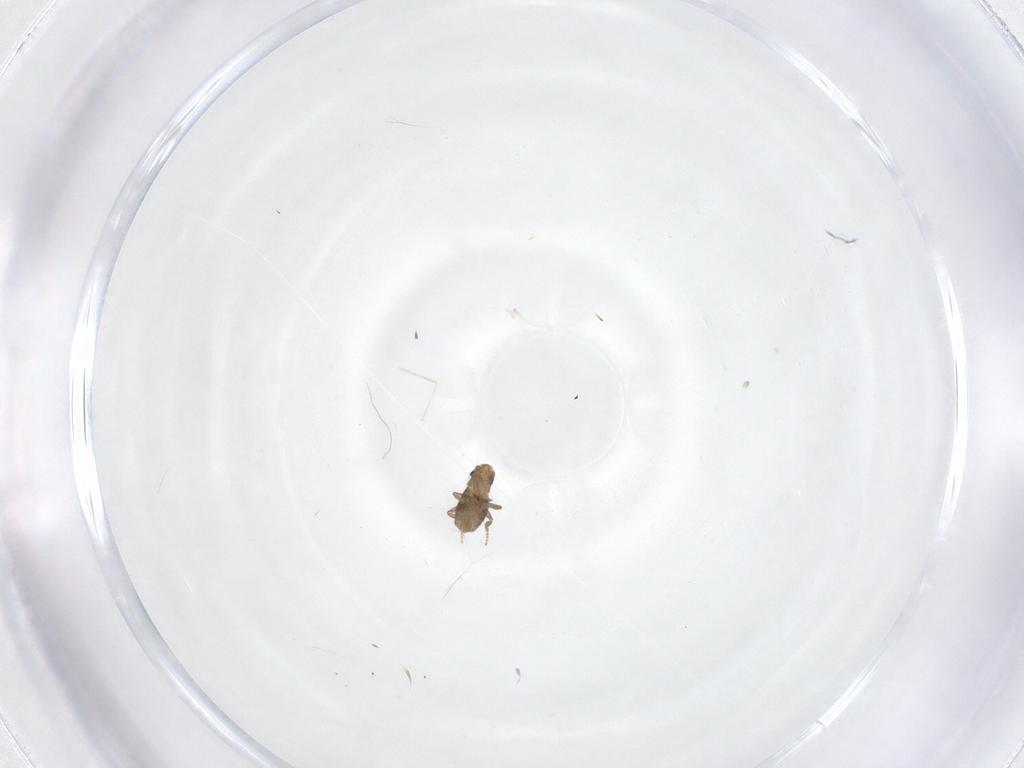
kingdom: Animalia
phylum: Arthropoda
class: Insecta
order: Diptera
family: Phoridae
